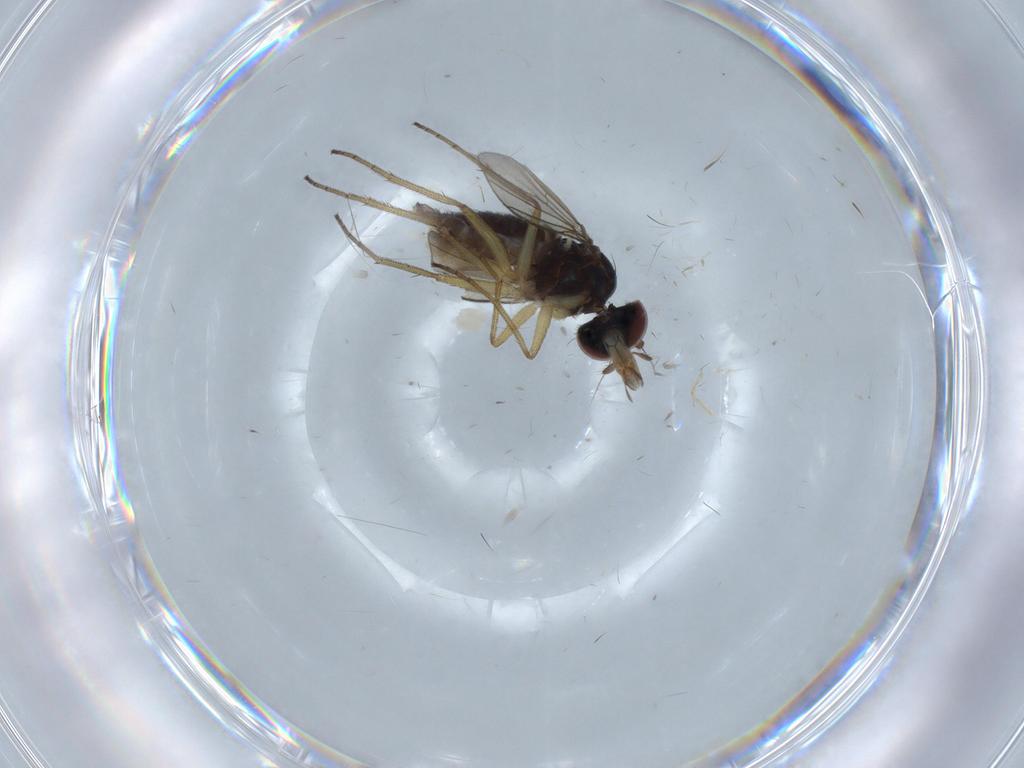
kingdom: Animalia
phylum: Arthropoda
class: Insecta
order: Diptera
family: Dolichopodidae
